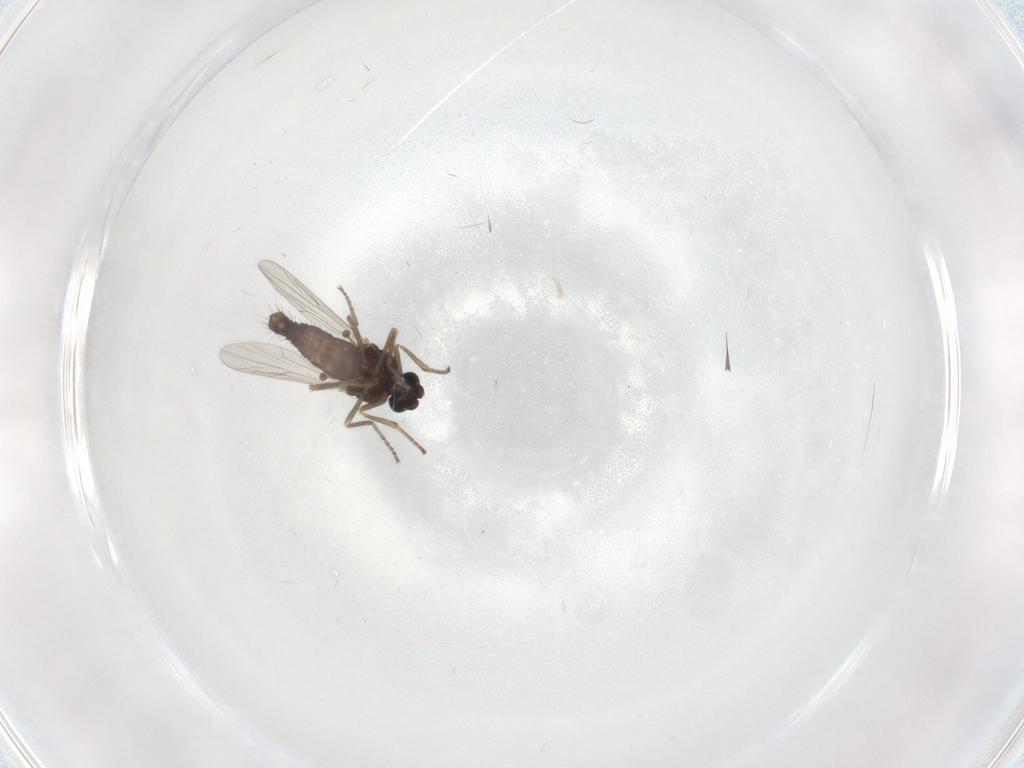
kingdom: Animalia
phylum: Arthropoda
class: Insecta
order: Diptera
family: Ceratopogonidae
